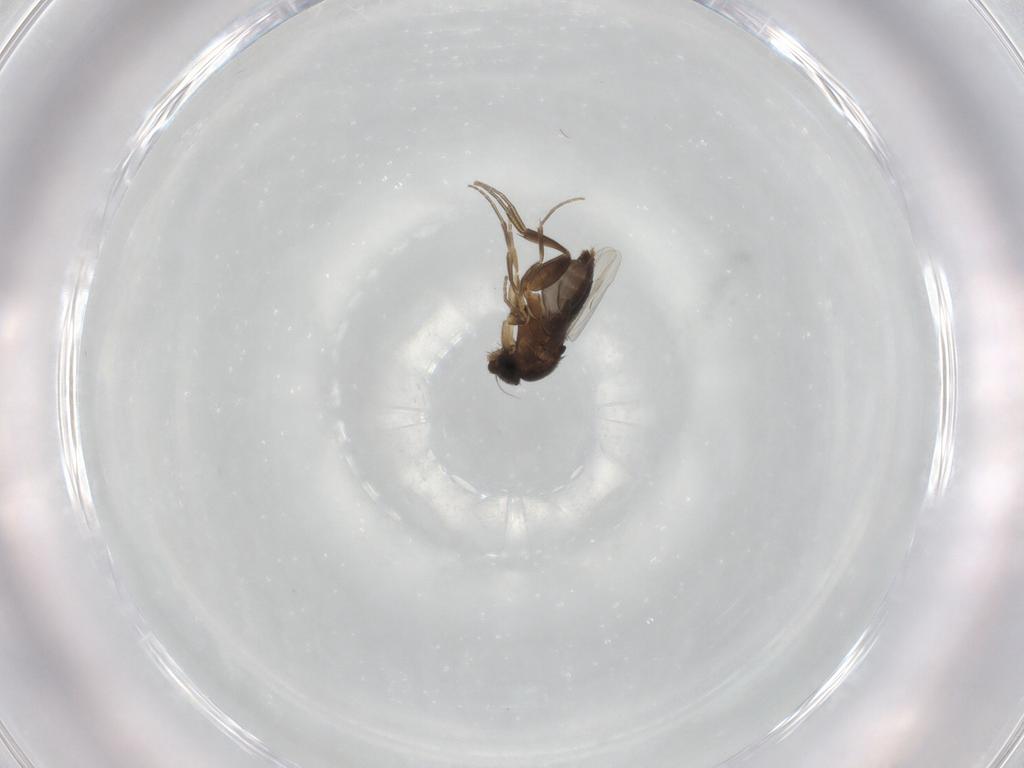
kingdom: Animalia
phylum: Arthropoda
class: Insecta
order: Diptera
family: Phoridae
